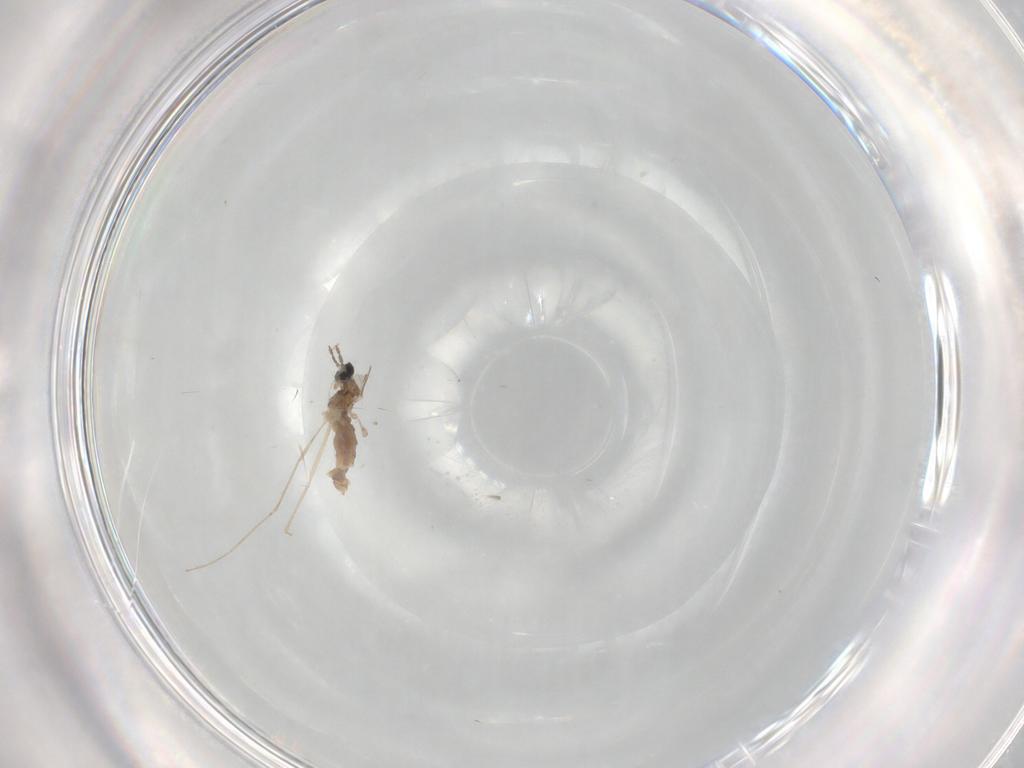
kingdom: Animalia
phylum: Arthropoda
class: Insecta
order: Diptera
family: Cecidomyiidae
